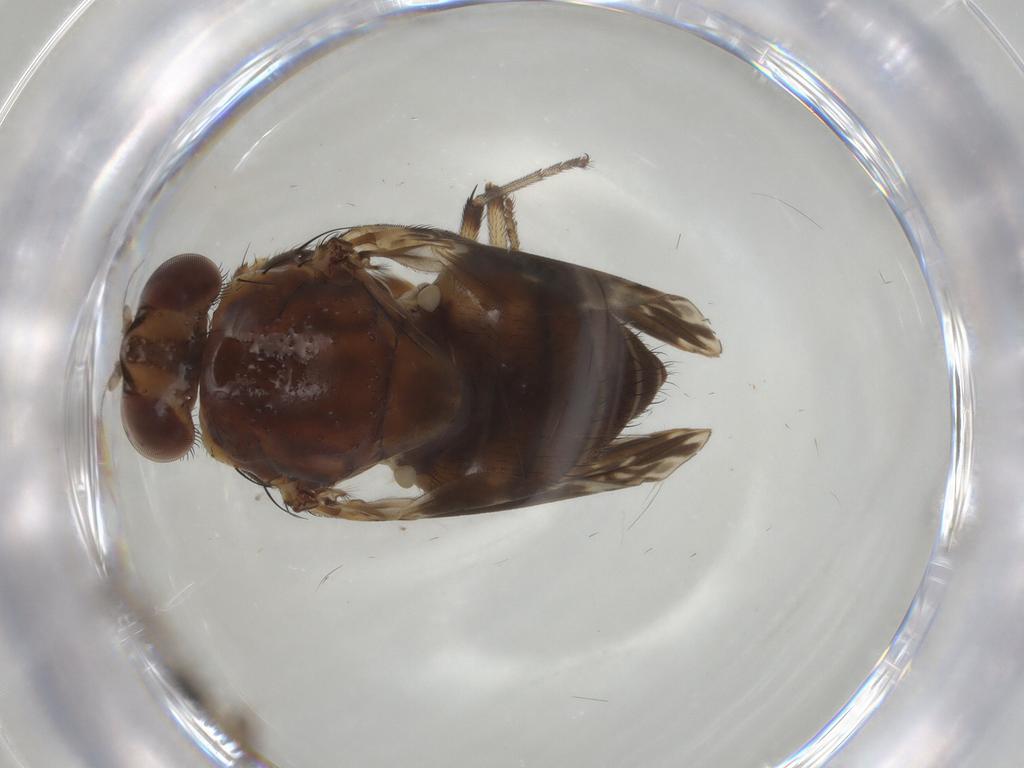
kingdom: Animalia
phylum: Arthropoda
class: Insecta
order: Diptera
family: Lauxaniidae
